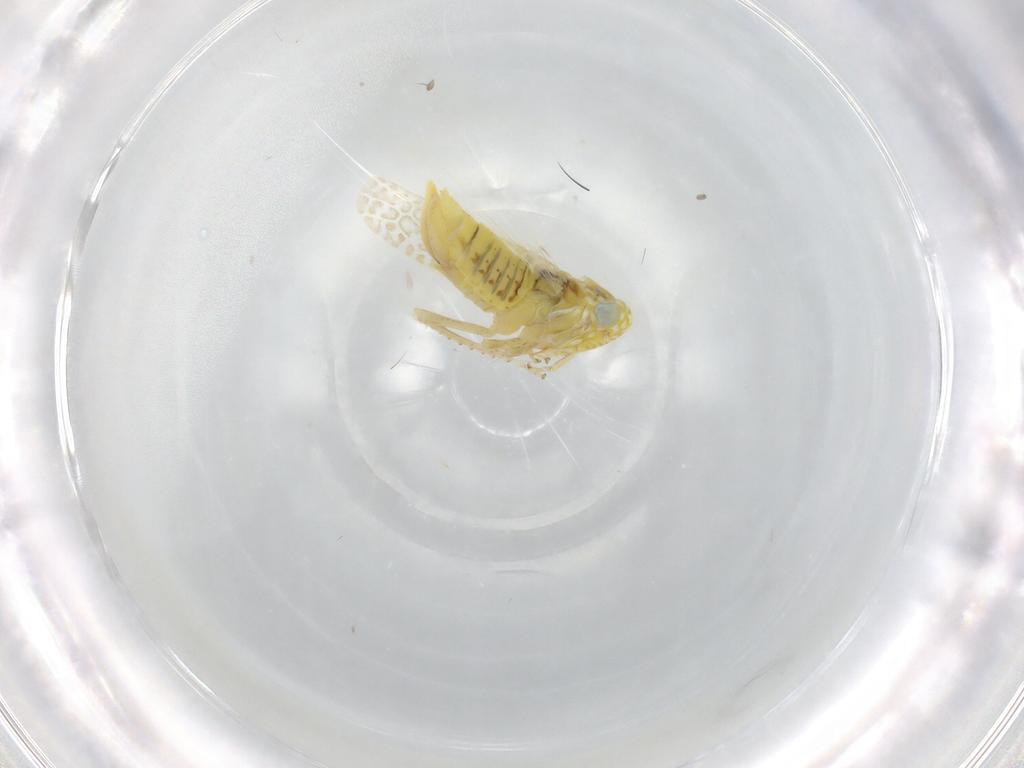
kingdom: Animalia
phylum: Arthropoda
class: Insecta
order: Hemiptera
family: Cicadellidae
